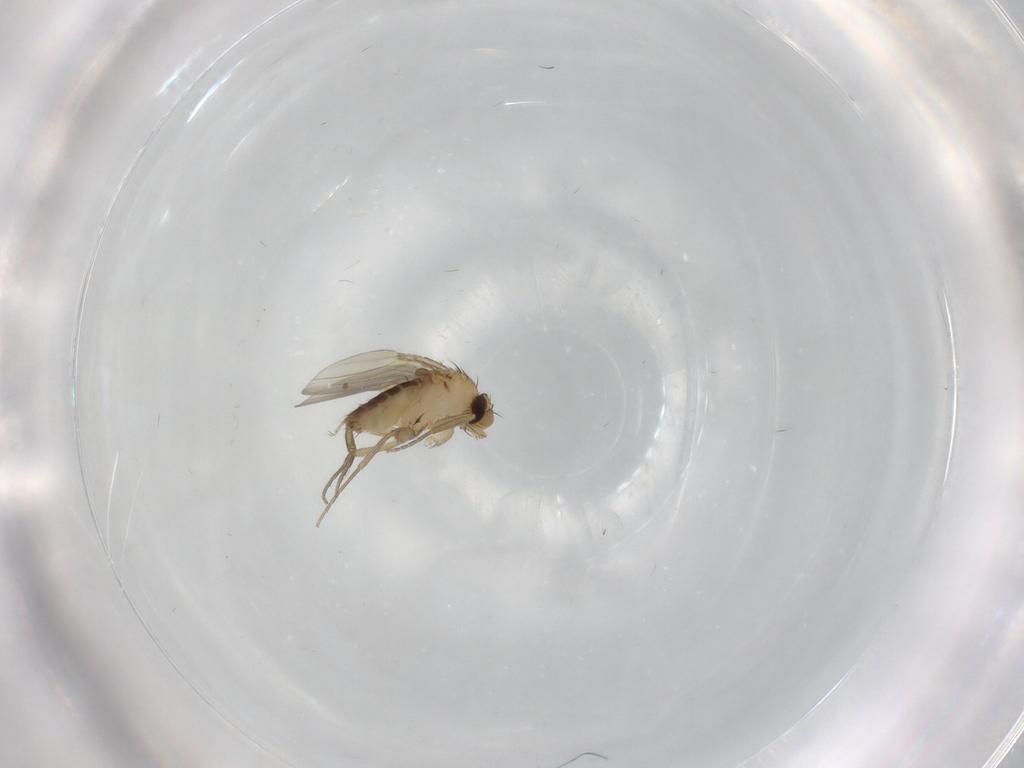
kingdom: Animalia
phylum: Arthropoda
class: Insecta
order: Diptera
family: Phoridae
